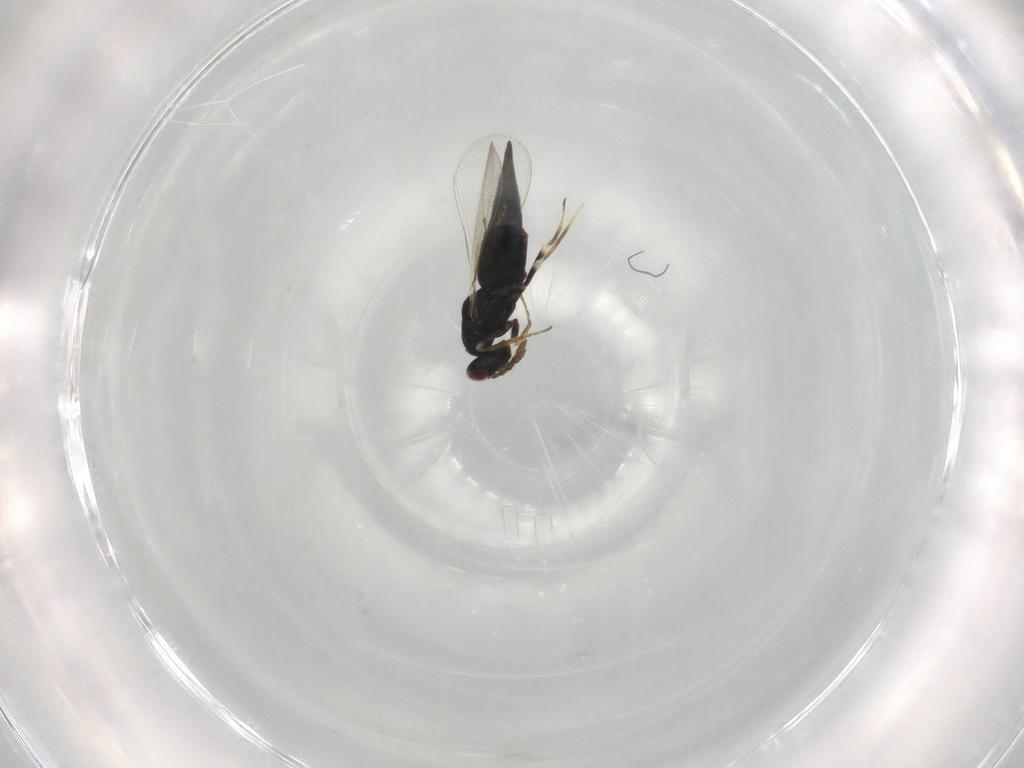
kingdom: Animalia
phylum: Arthropoda
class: Insecta
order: Hymenoptera
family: Eulophidae
